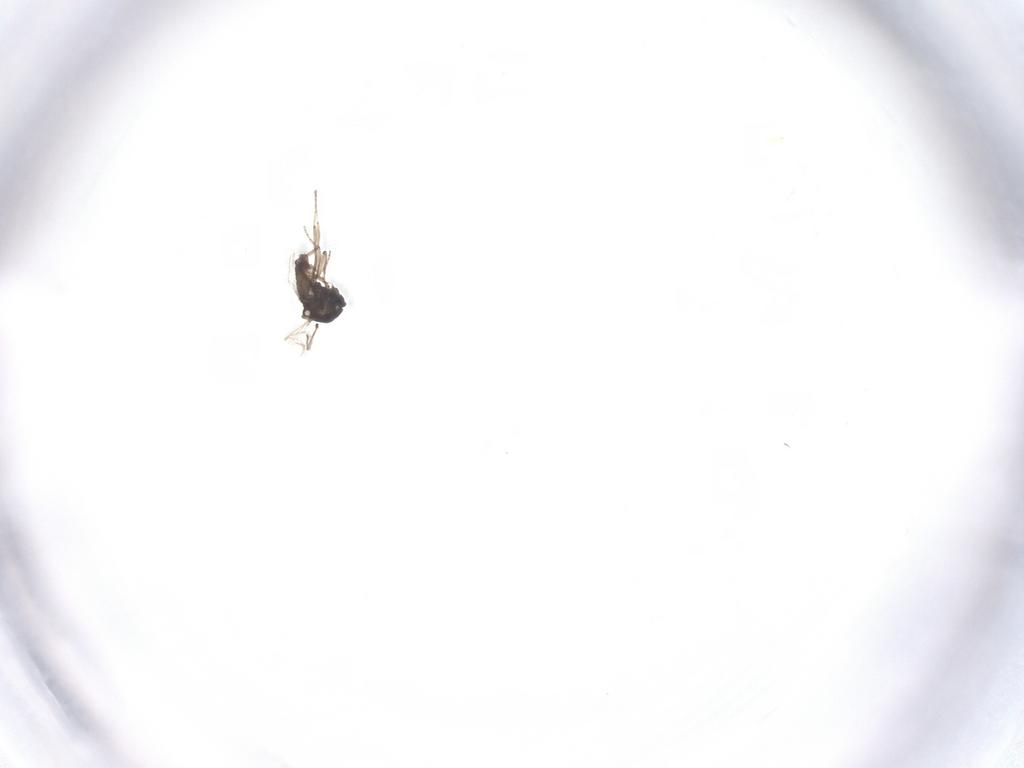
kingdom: Animalia
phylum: Arthropoda
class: Insecta
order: Diptera
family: Ceratopogonidae
